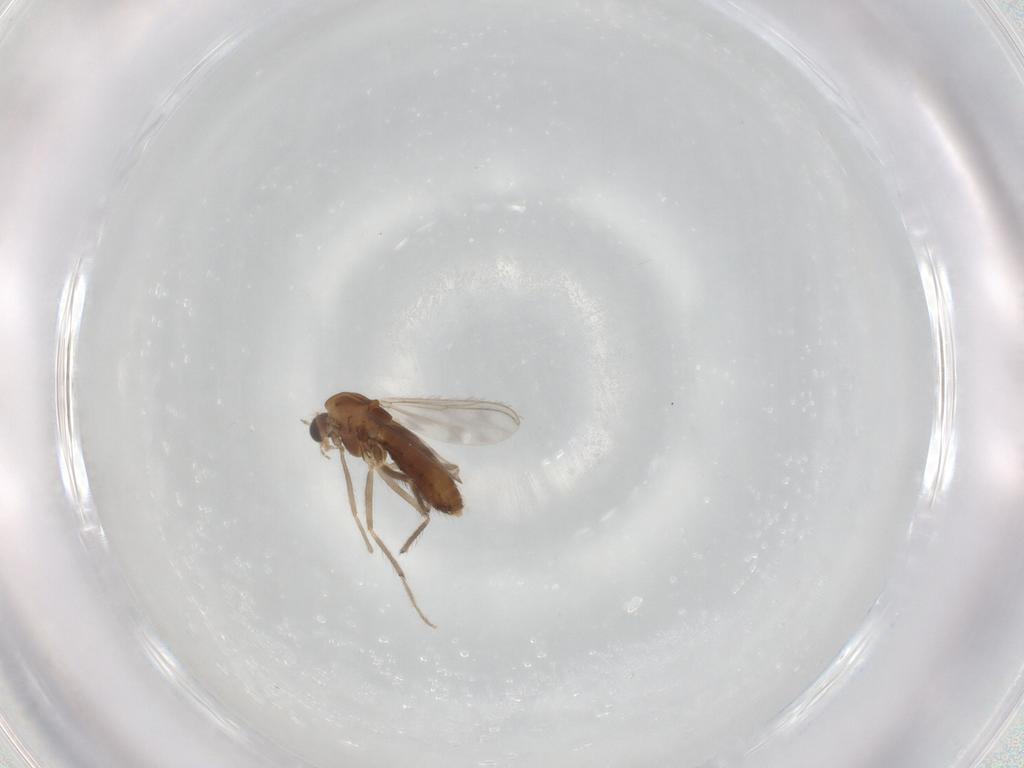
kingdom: Animalia
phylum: Arthropoda
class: Insecta
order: Diptera
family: Chironomidae
